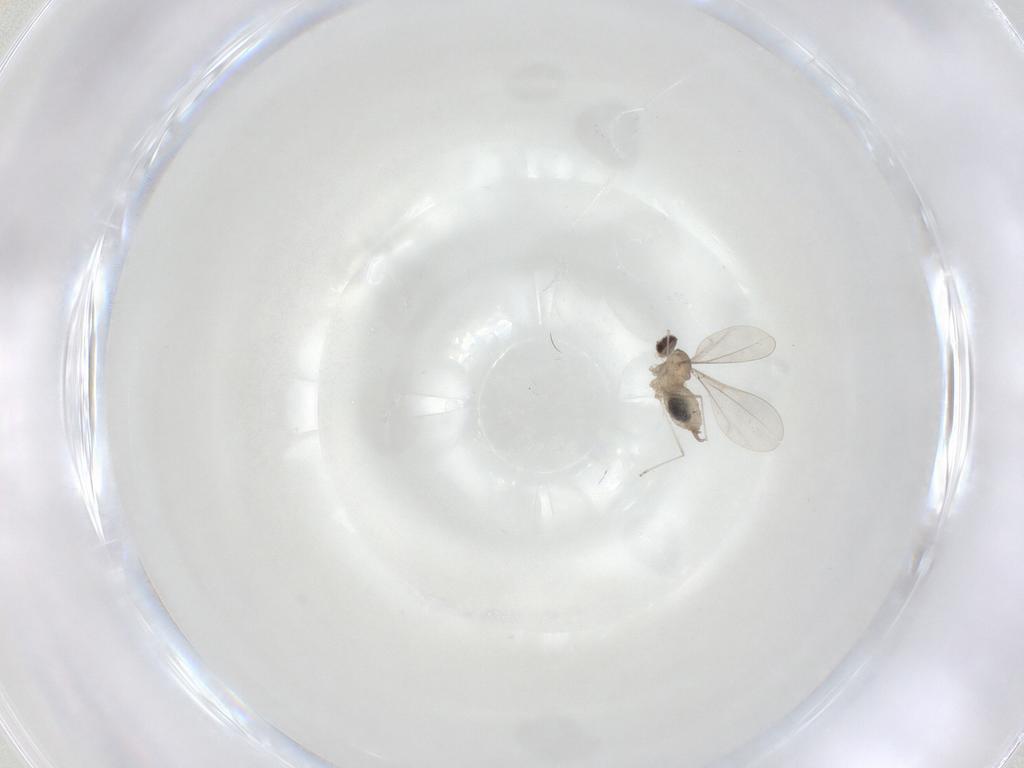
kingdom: Animalia
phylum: Arthropoda
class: Insecta
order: Diptera
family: Cecidomyiidae
